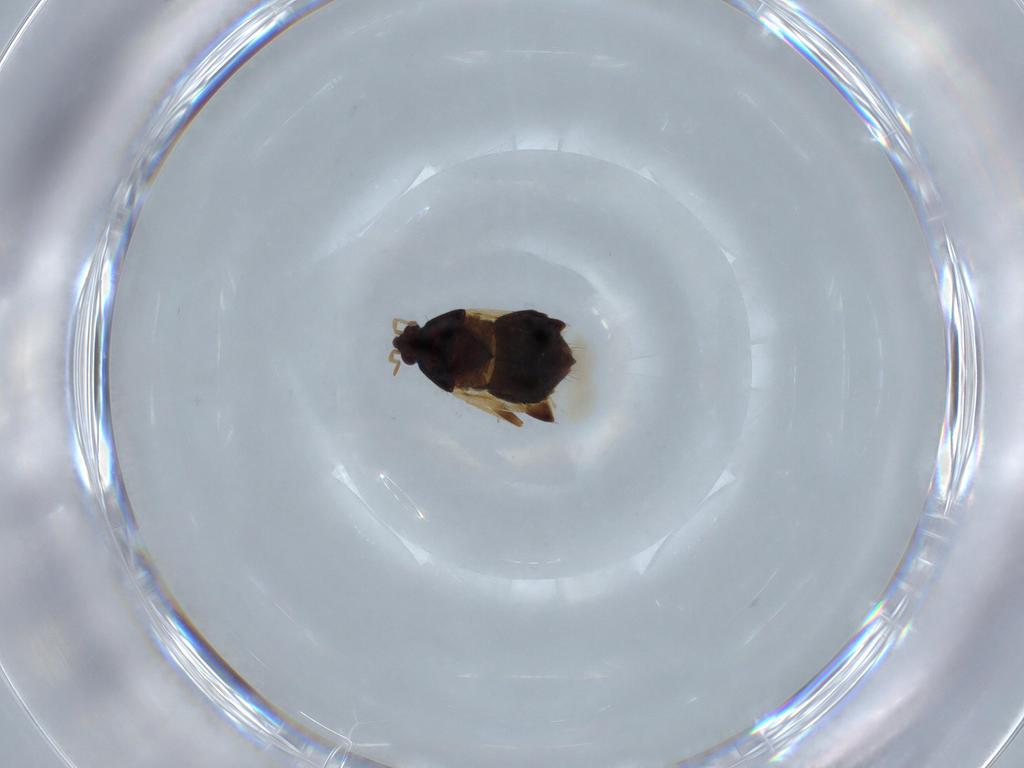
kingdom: Animalia
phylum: Arthropoda
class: Insecta
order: Hemiptera
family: Anthocoridae
